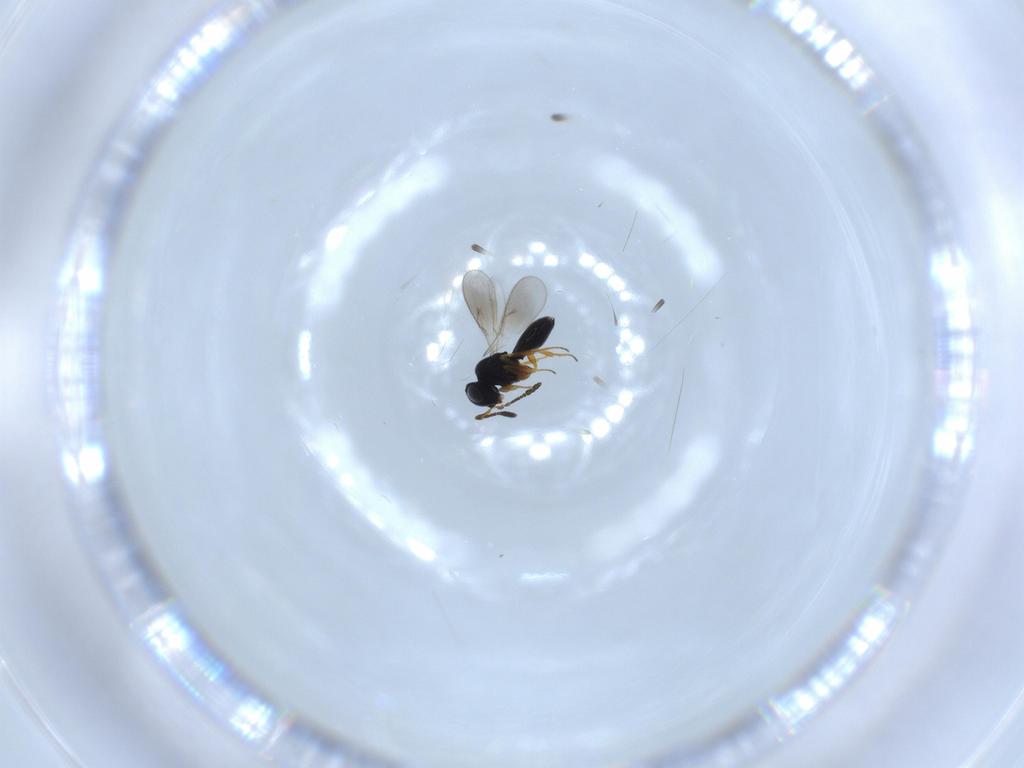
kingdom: Animalia
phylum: Arthropoda
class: Insecta
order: Hymenoptera
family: Scelionidae
